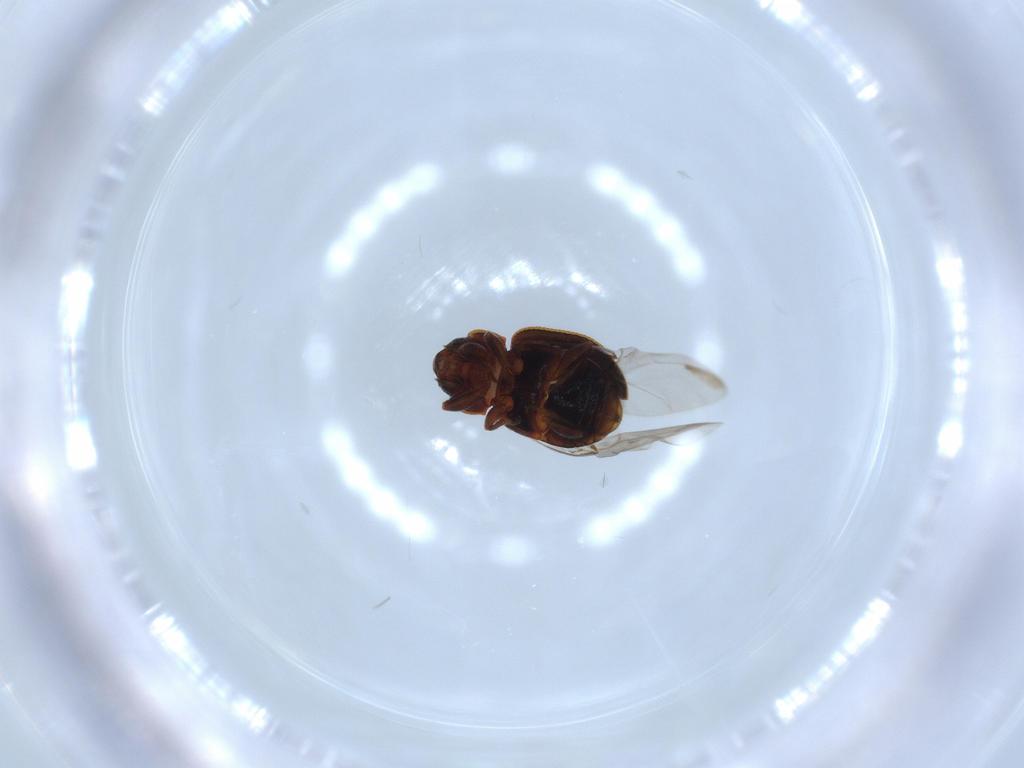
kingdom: Animalia
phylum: Arthropoda
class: Insecta
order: Coleoptera
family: Coccinellidae
